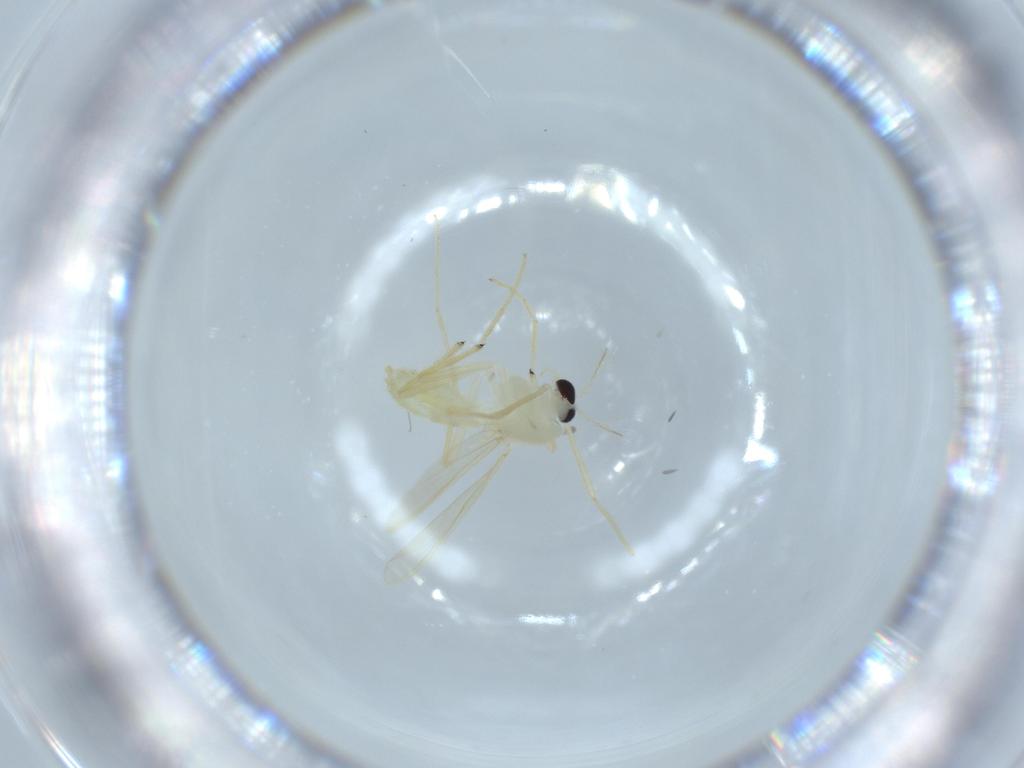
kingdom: Animalia
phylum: Arthropoda
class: Insecta
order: Diptera
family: Chironomidae
